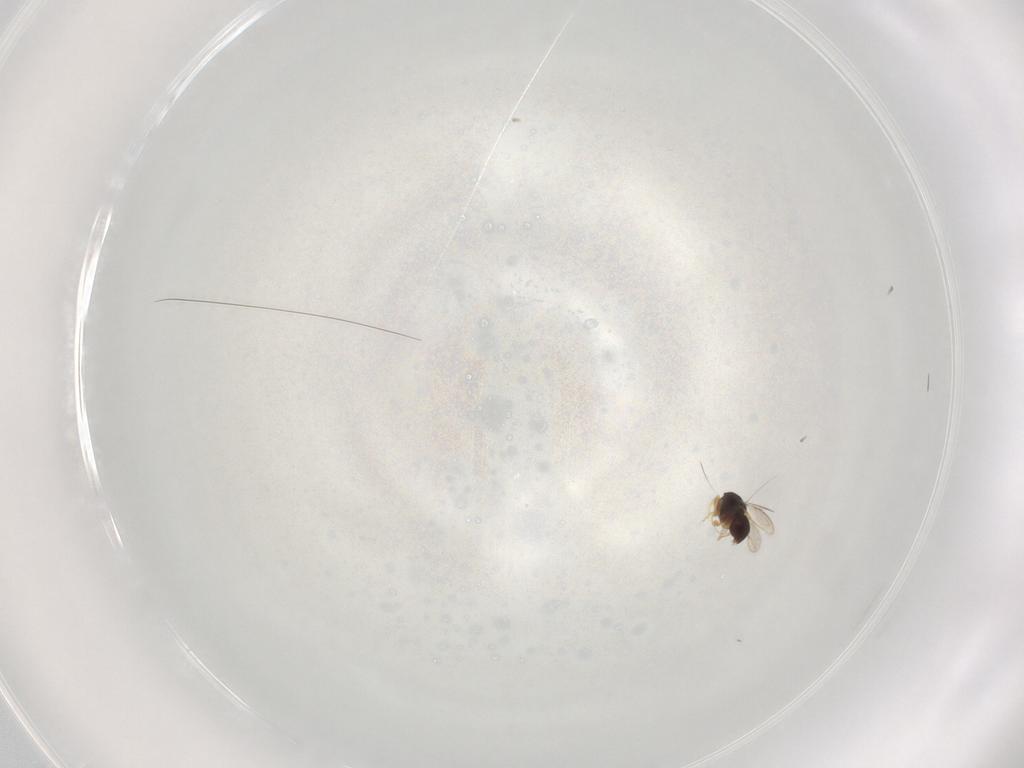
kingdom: Animalia
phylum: Arthropoda
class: Insecta
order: Hymenoptera
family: Ceraphronidae
